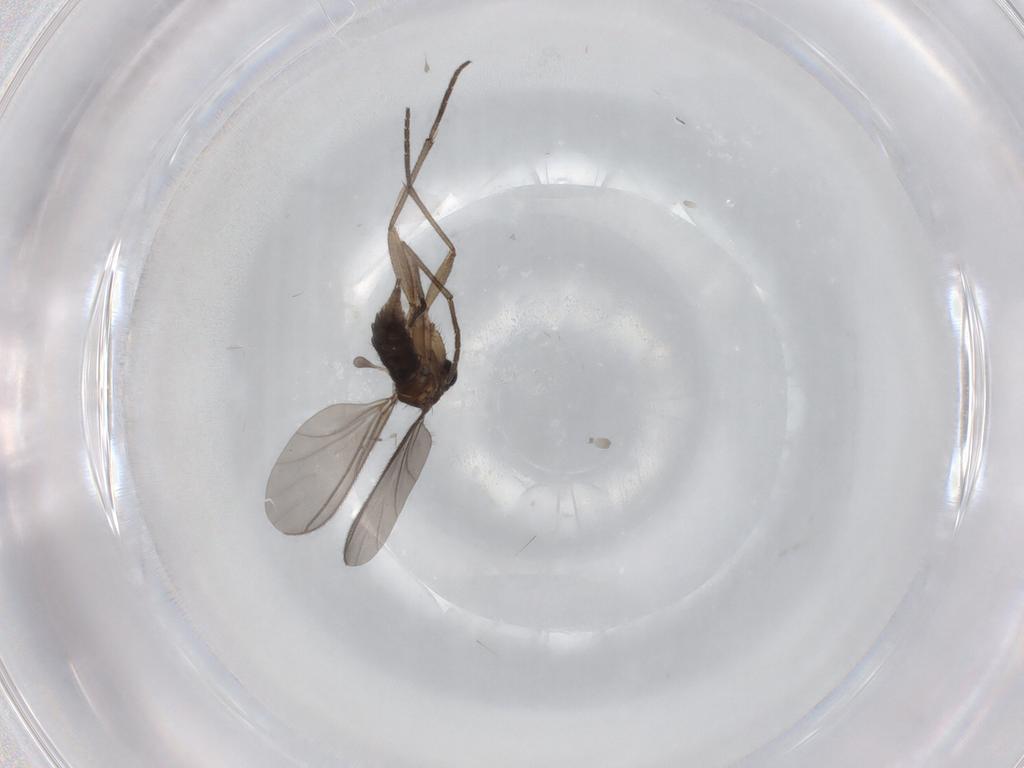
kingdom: Animalia
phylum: Arthropoda
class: Insecta
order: Diptera
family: Sciaridae
